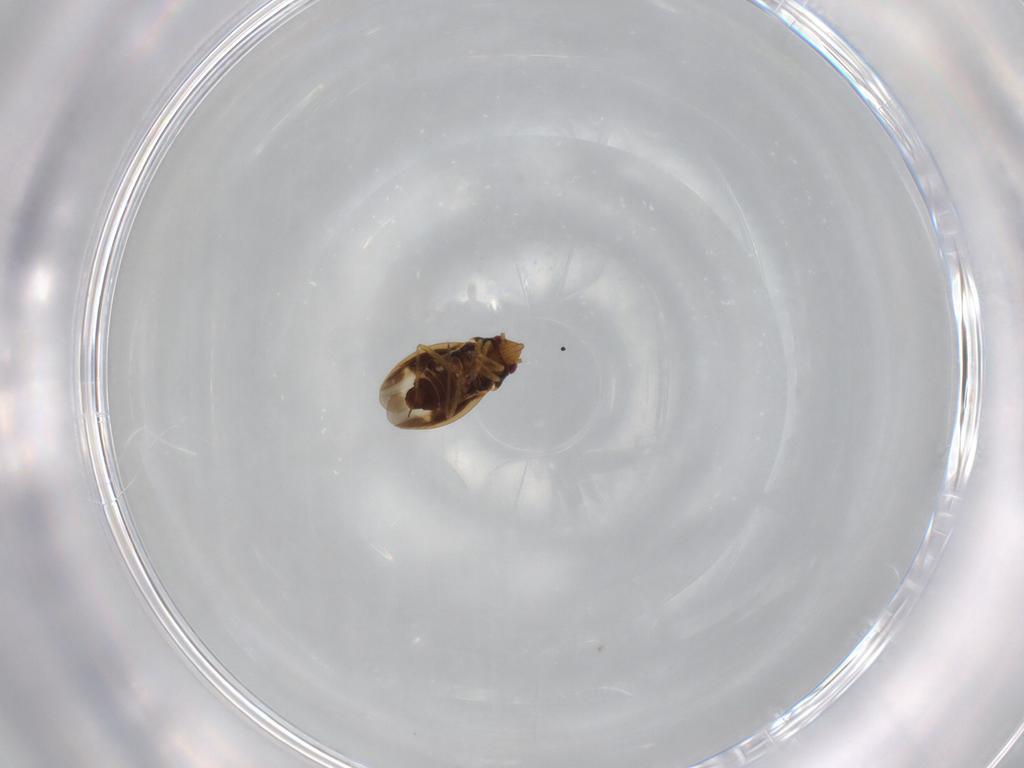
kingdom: Animalia
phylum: Arthropoda
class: Insecta
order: Hemiptera
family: Schizopteridae
